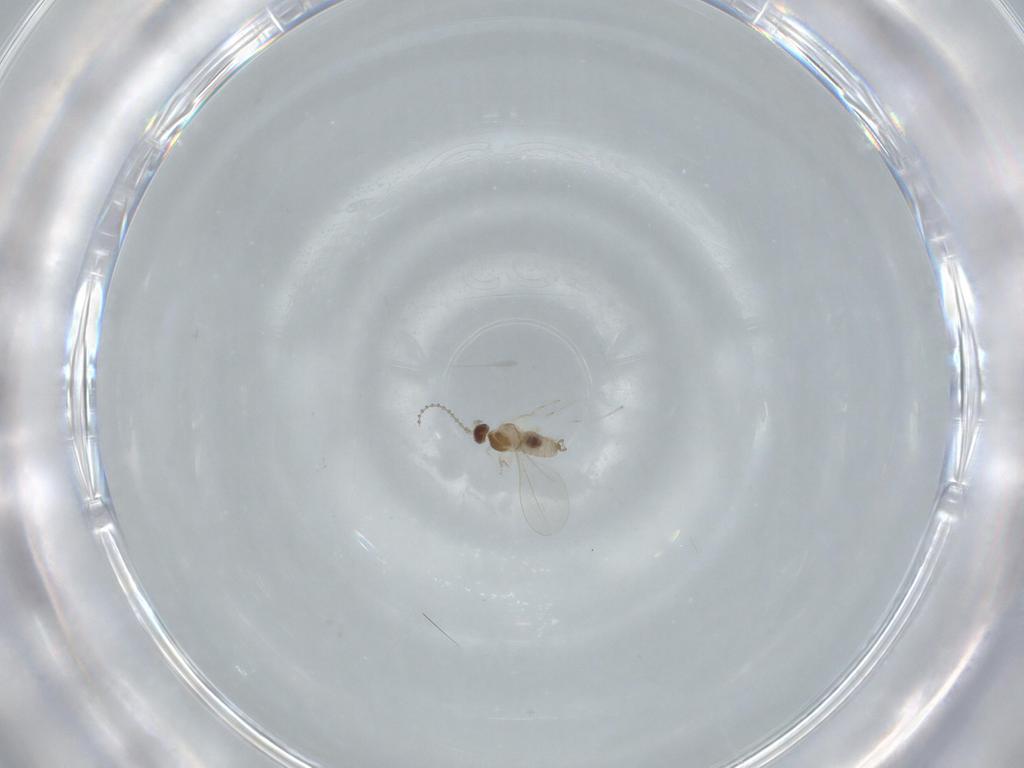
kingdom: Animalia
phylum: Arthropoda
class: Insecta
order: Diptera
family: Cecidomyiidae
